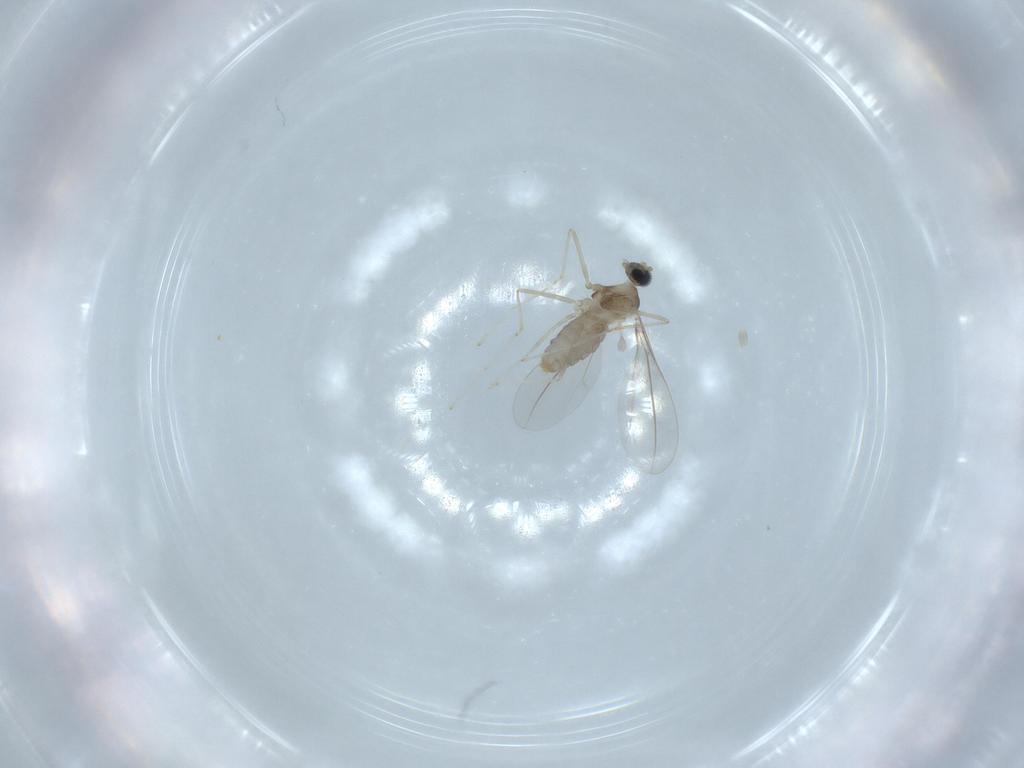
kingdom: Animalia
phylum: Arthropoda
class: Insecta
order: Diptera
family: Cecidomyiidae
